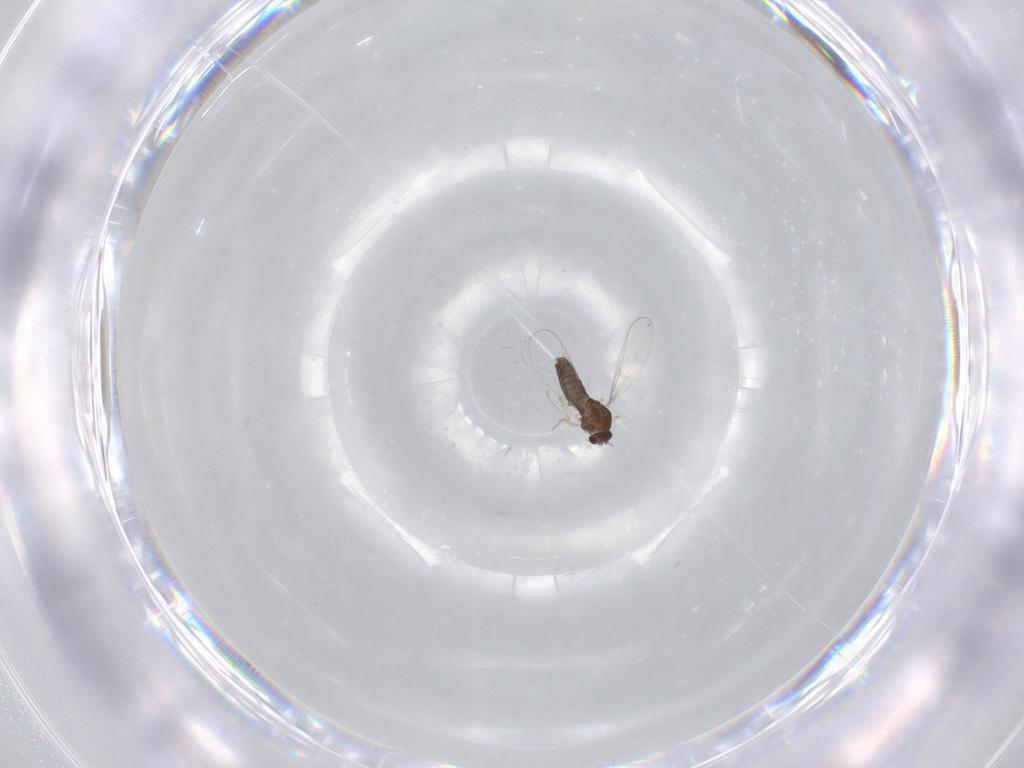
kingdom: Animalia
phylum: Arthropoda
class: Insecta
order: Diptera
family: Chironomidae
